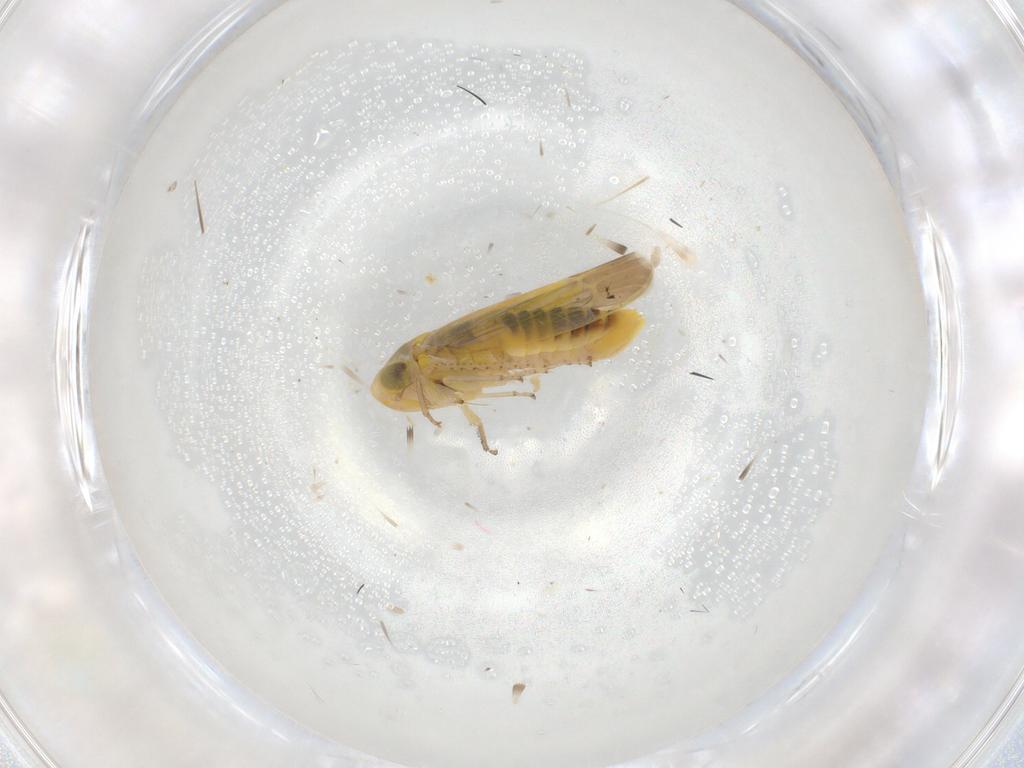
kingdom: Animalia
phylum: Arthropoda
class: Insecta
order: Hemiptera
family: Cicadellidae
